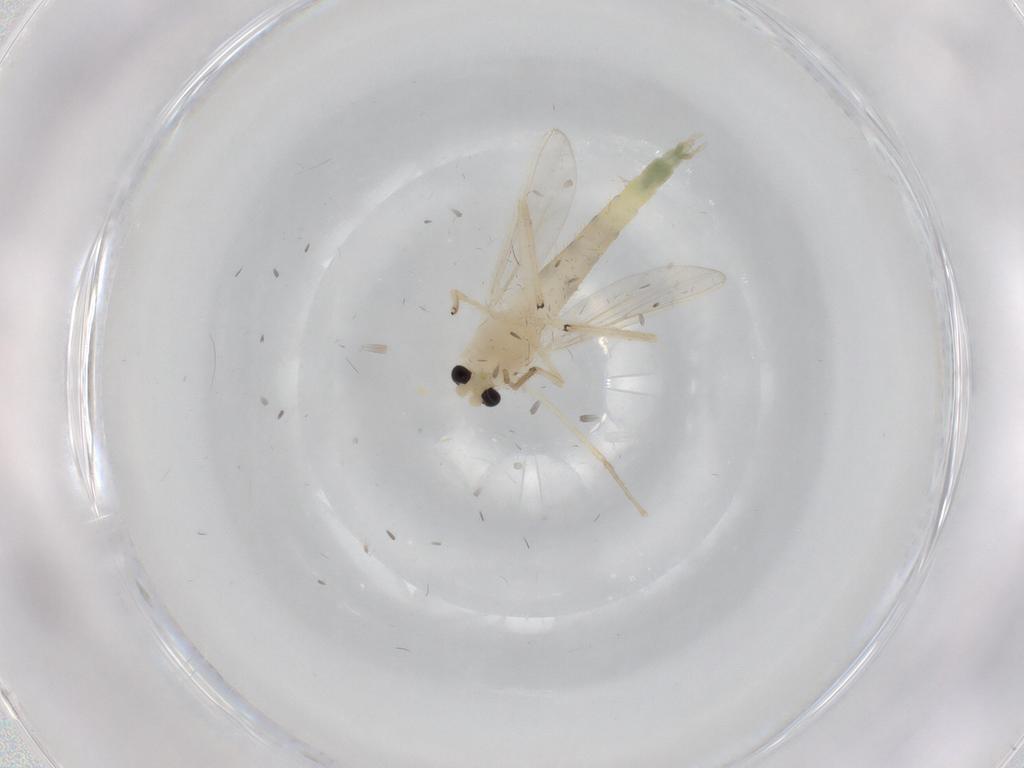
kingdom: Animalia
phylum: Arthropoda
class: Insecta
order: Diptera
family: Chironomidae
